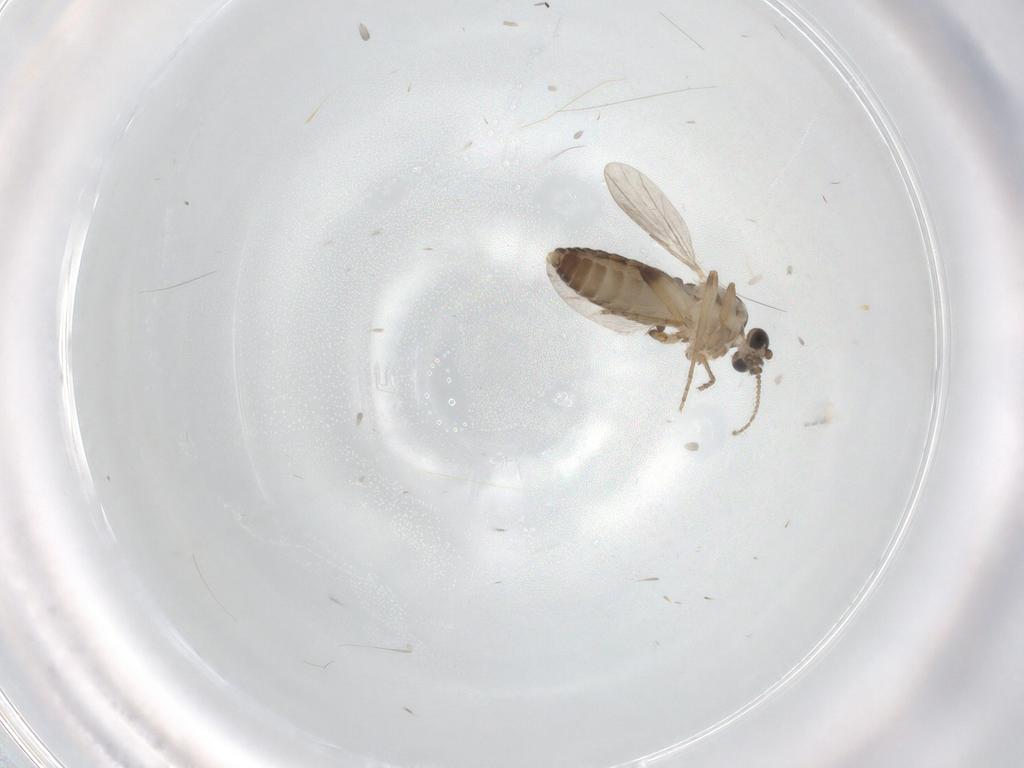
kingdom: Animalia
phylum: Arthropoda
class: Insecta
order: Diptera
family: Ceratopogonidae
